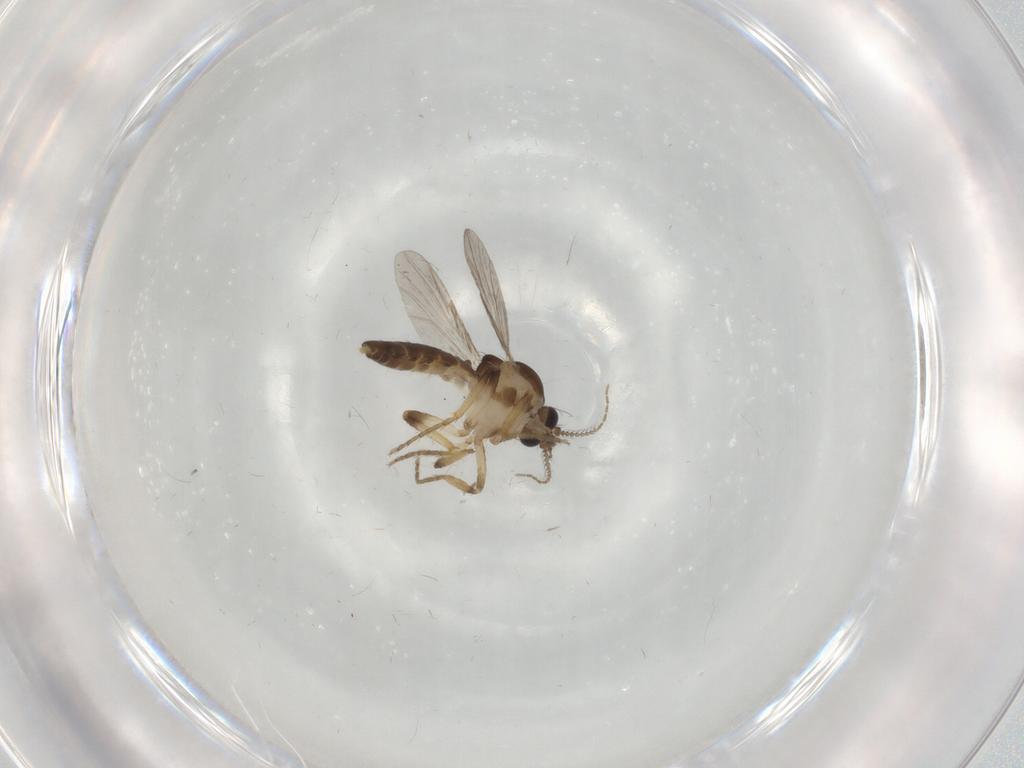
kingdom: Animalia
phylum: Arthropoda
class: Insecta
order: Diptera
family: Ceratopogonidae
